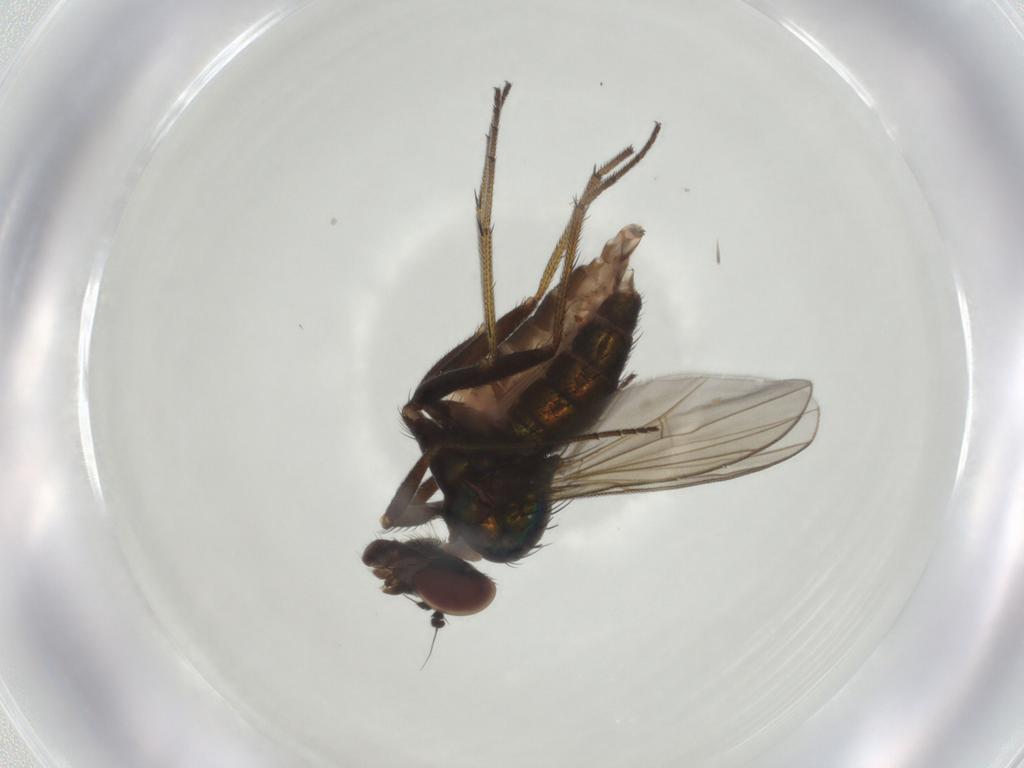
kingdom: Animalia
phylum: Arthropoda
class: Insecta
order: Diptera
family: Dolichopodidae
